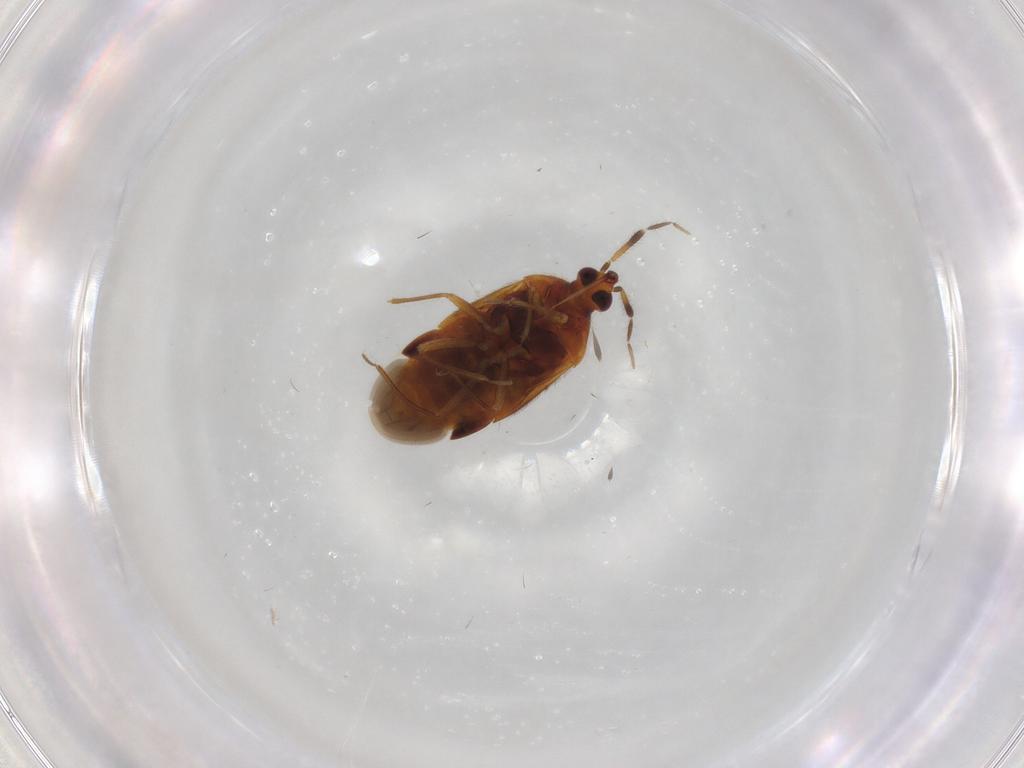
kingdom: Animalia
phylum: Arthropoda
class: Insecta
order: Hemiptera
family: Anthocoridae
